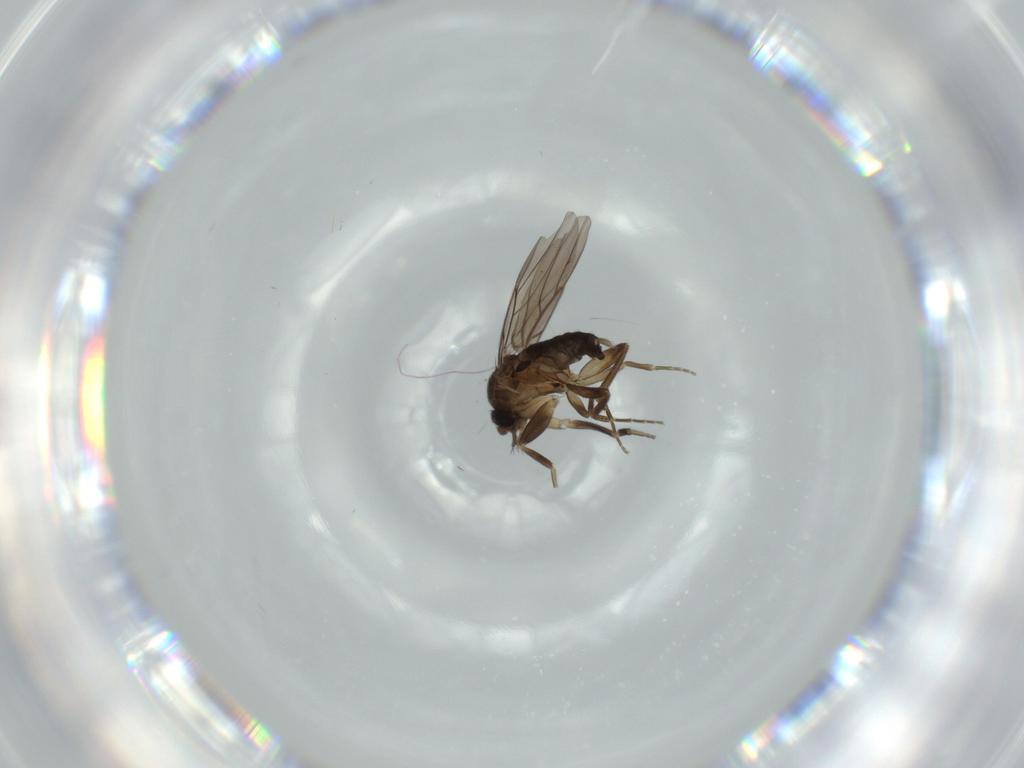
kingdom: Animalia
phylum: Arthropoda
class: Insecta
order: Diptera
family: Milichiidae
